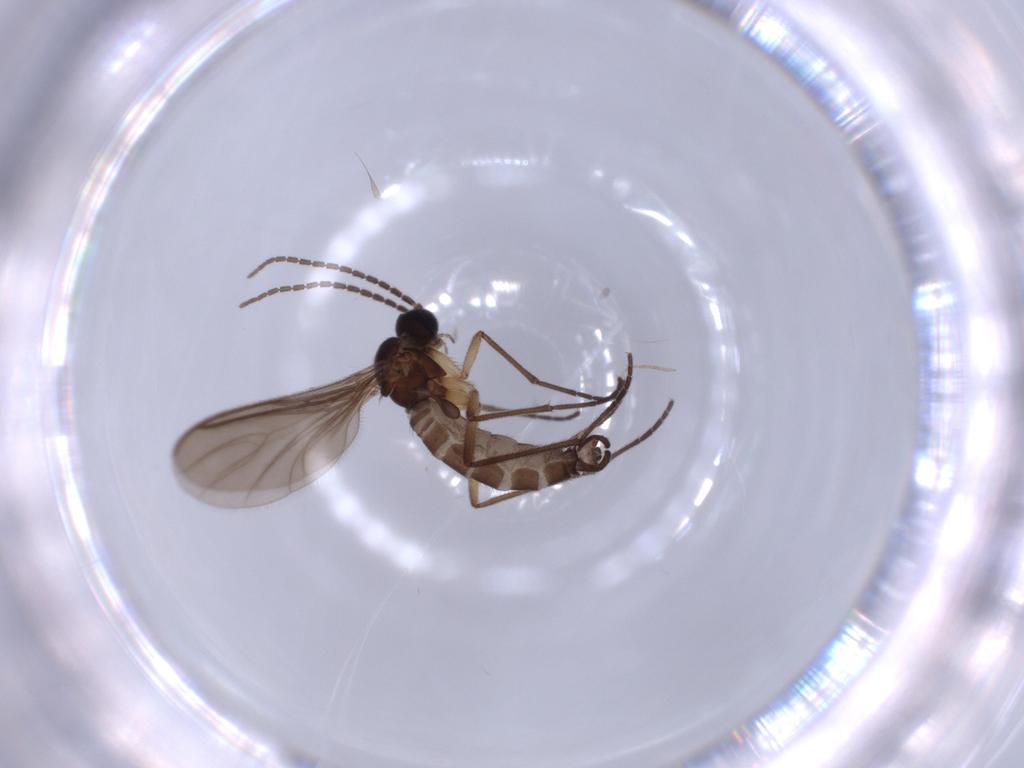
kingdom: Animalia
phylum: Arthropoda
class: Insecta
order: Diptera
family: Sciaridae
